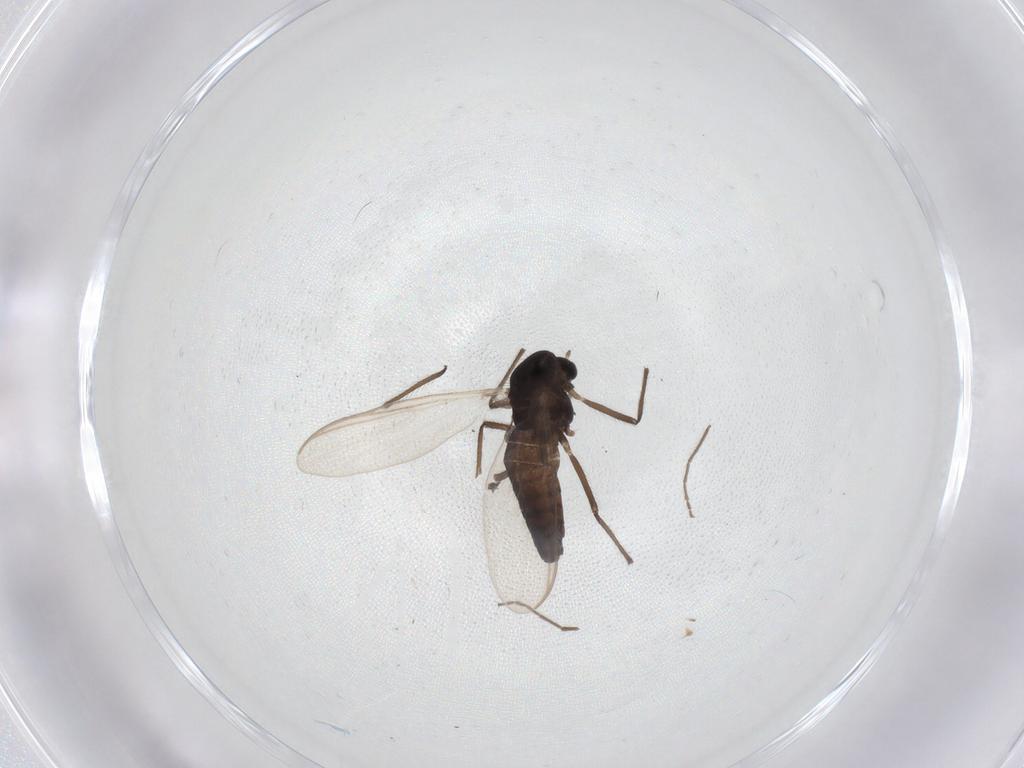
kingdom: Animalia
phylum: Arthropoda
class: Insecta
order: Diptera
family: Chironomidae
